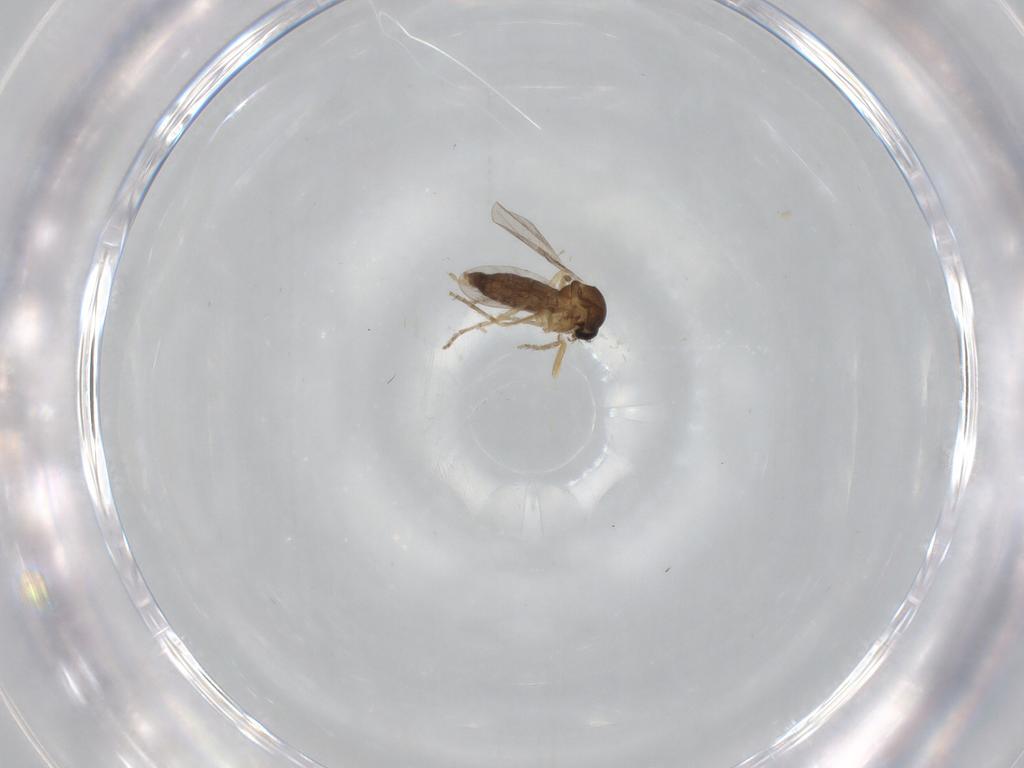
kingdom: Animalia
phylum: Arthropoda
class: Insecta
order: Diptera
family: Ceratopogonidae
